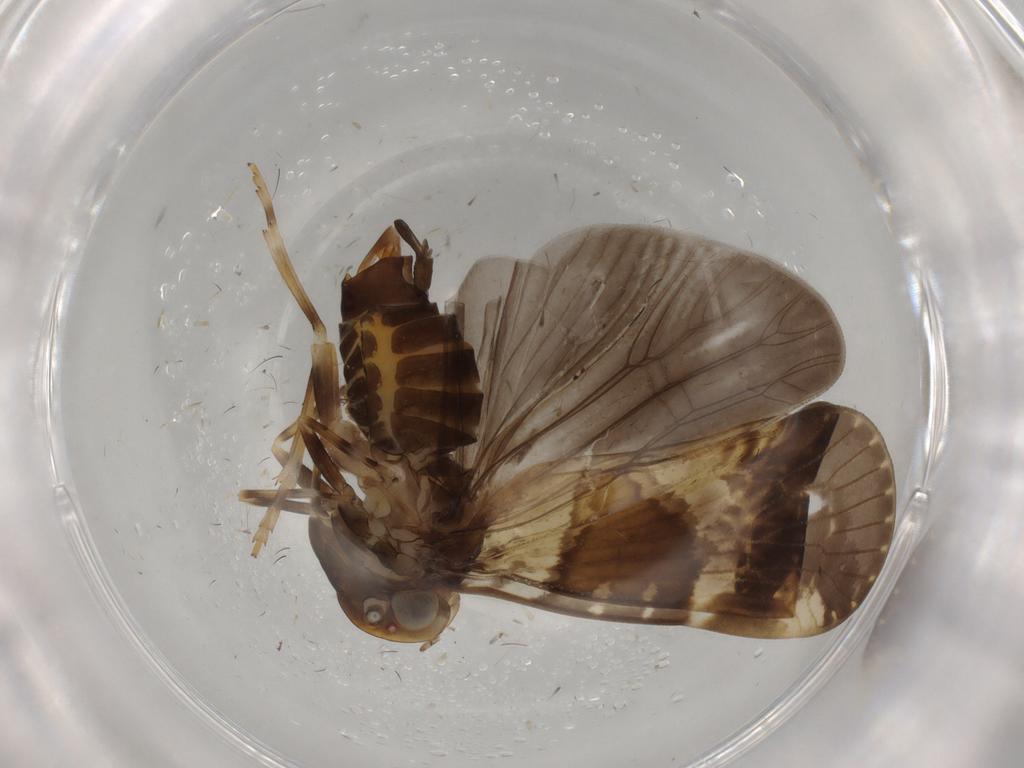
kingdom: Animalia
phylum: Arthropoda
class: Insecta
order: Hemiptera
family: Cixiidae
